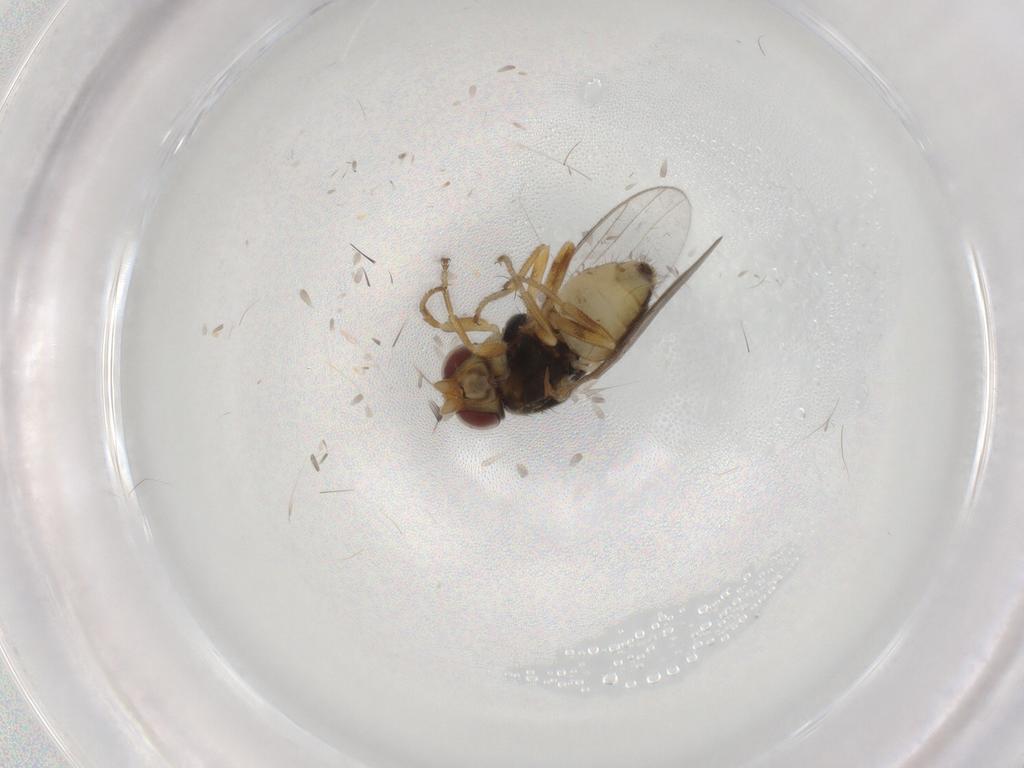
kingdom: Animalia
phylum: Arthropoda
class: Insecta
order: Diptera
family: Chloropidae
